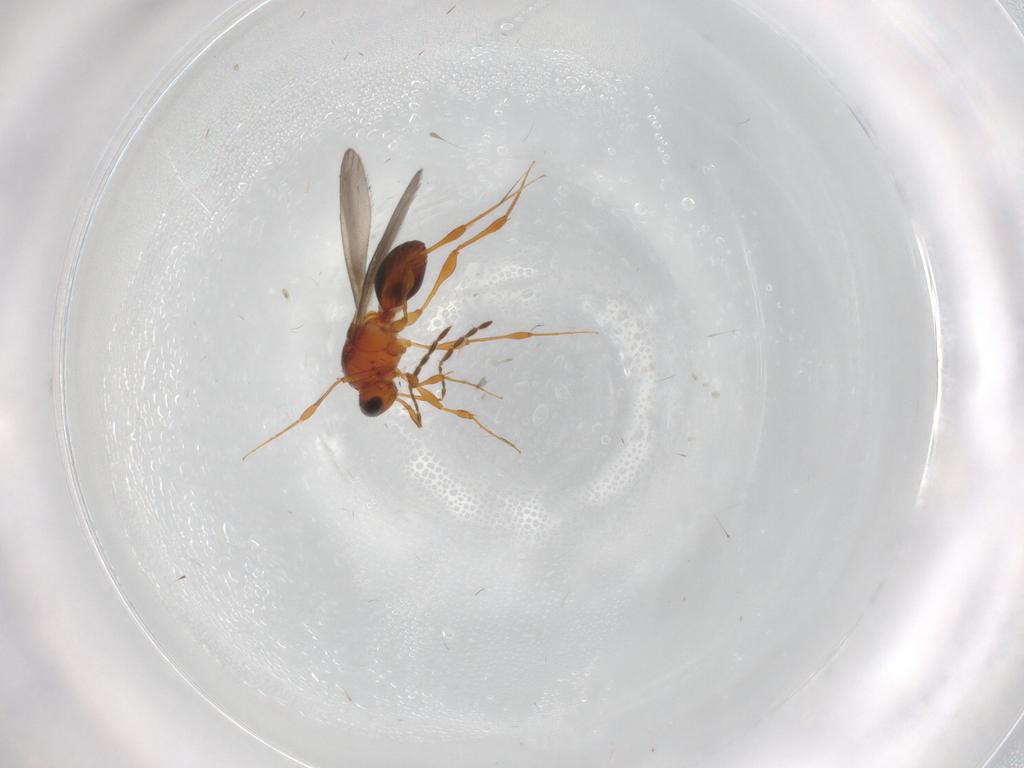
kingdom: Animalia
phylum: Arthropoda
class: Insecta
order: Hymenoptera
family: Platygastridae
